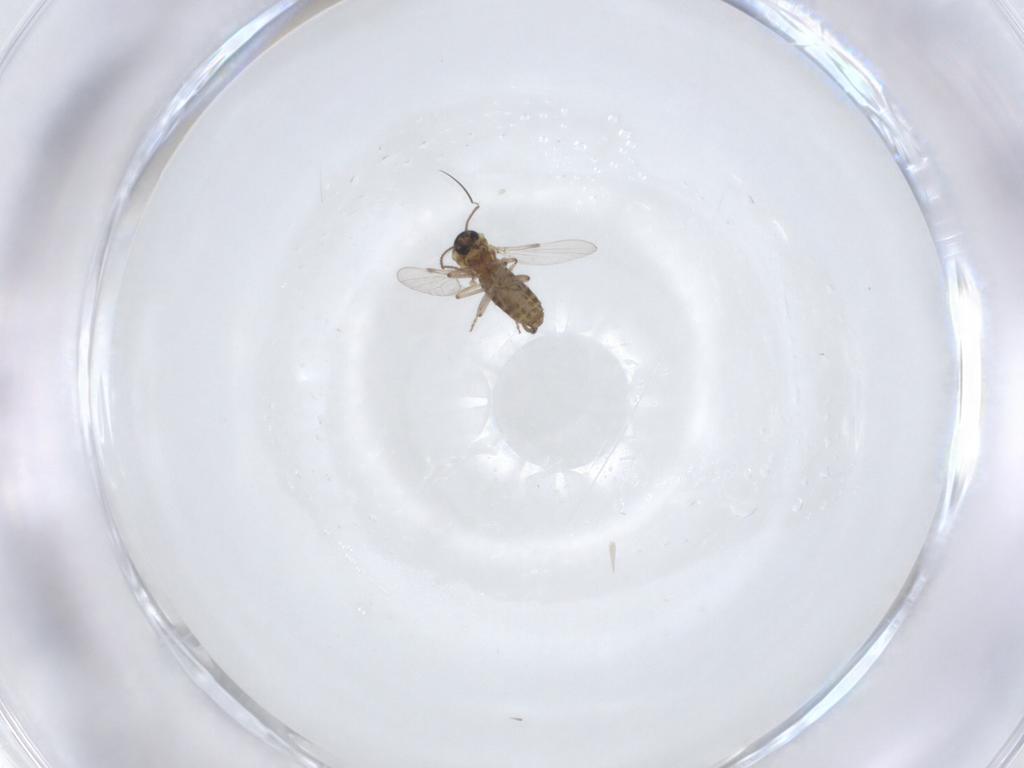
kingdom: Animalia
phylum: Arthropoda
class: Insecta
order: Diptera
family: Ceratopogonidae
